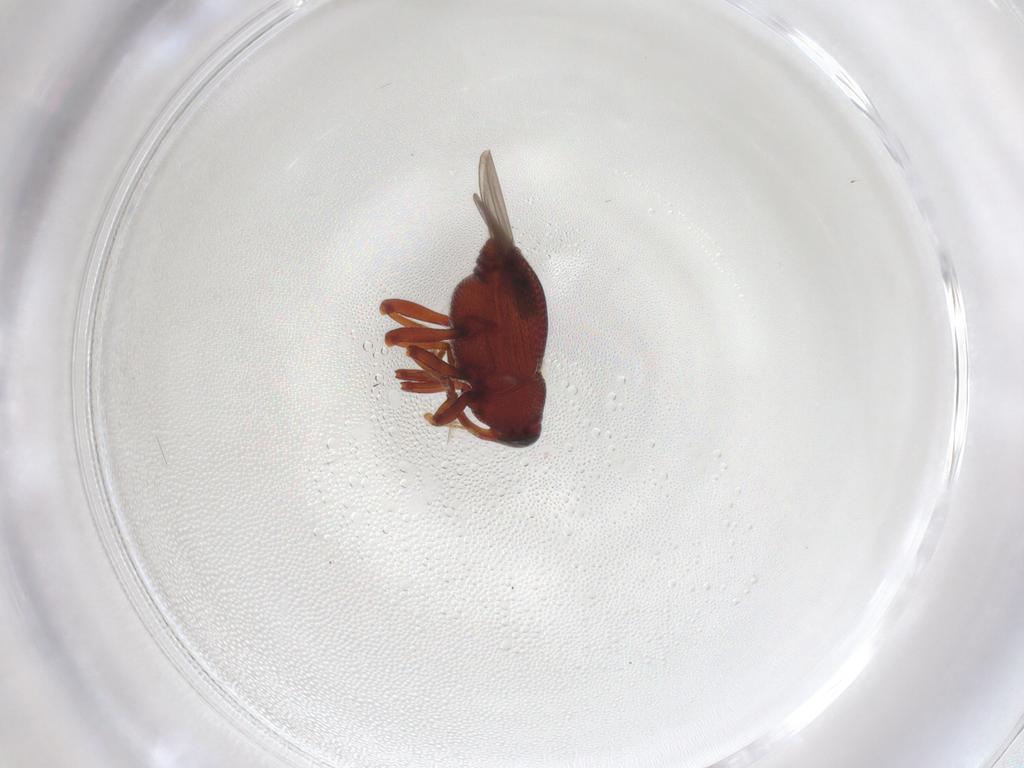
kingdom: Animalia
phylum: Arthropoda
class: Insecta
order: Coleoptera
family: Curculionidae
